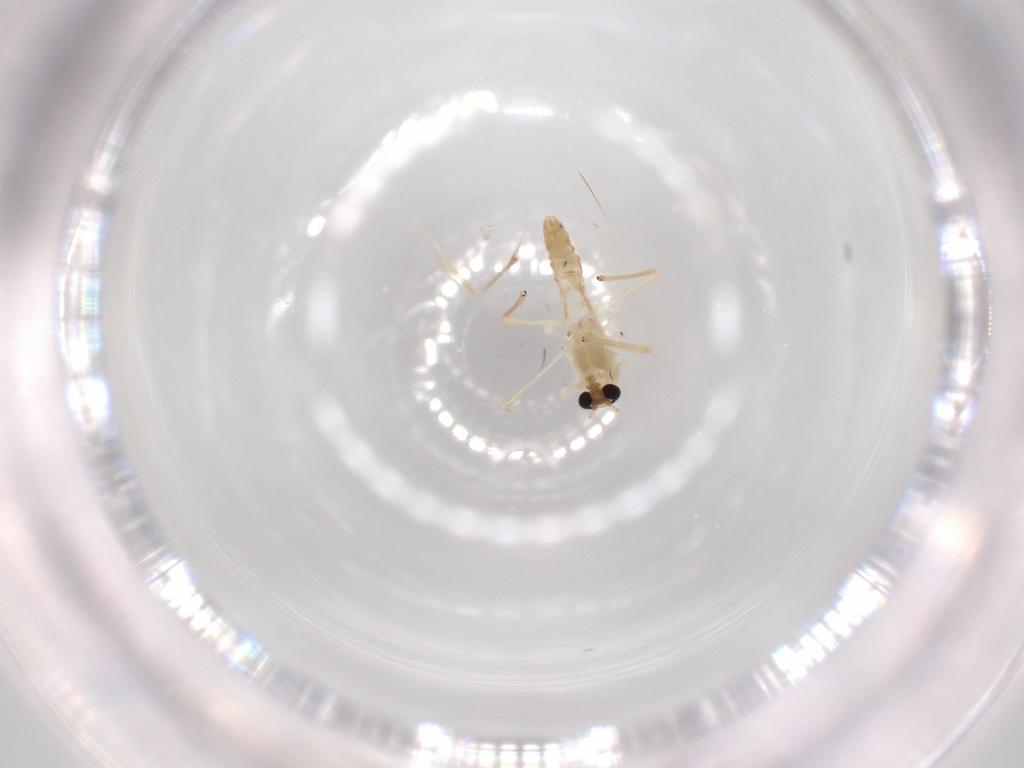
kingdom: Animalia
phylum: Arthropoda
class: Insecta
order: Diptera
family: Chironomidae
